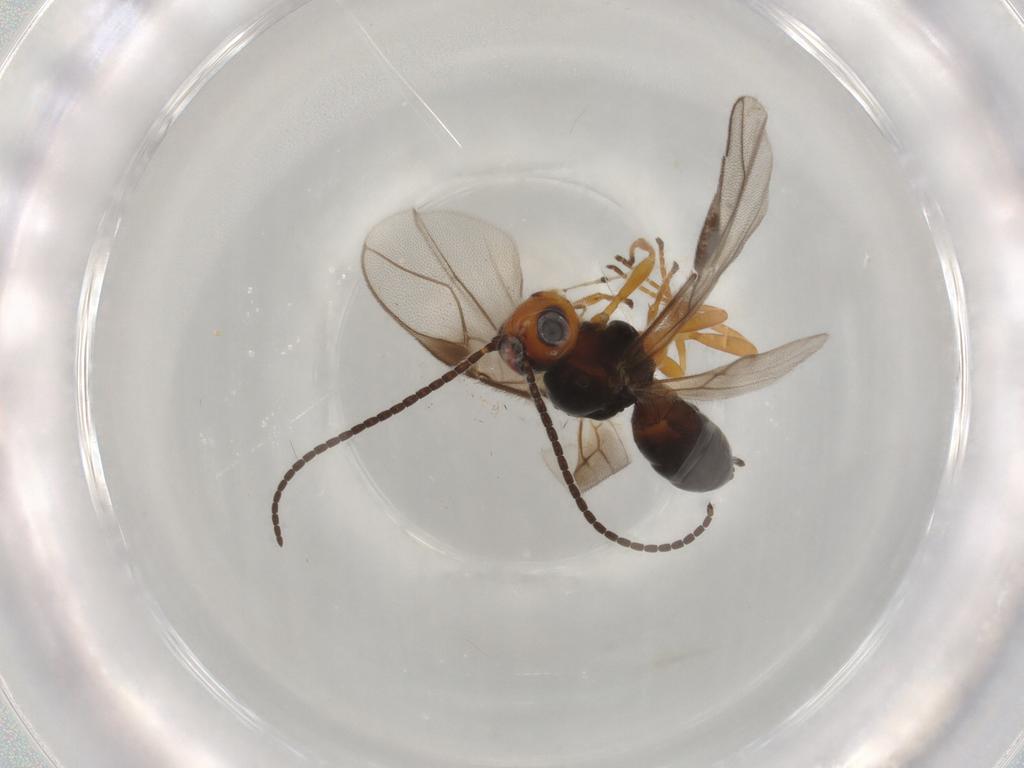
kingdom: Animalia
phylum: Arthropoda
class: Insecta
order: Hymenoptera
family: Braconidae
